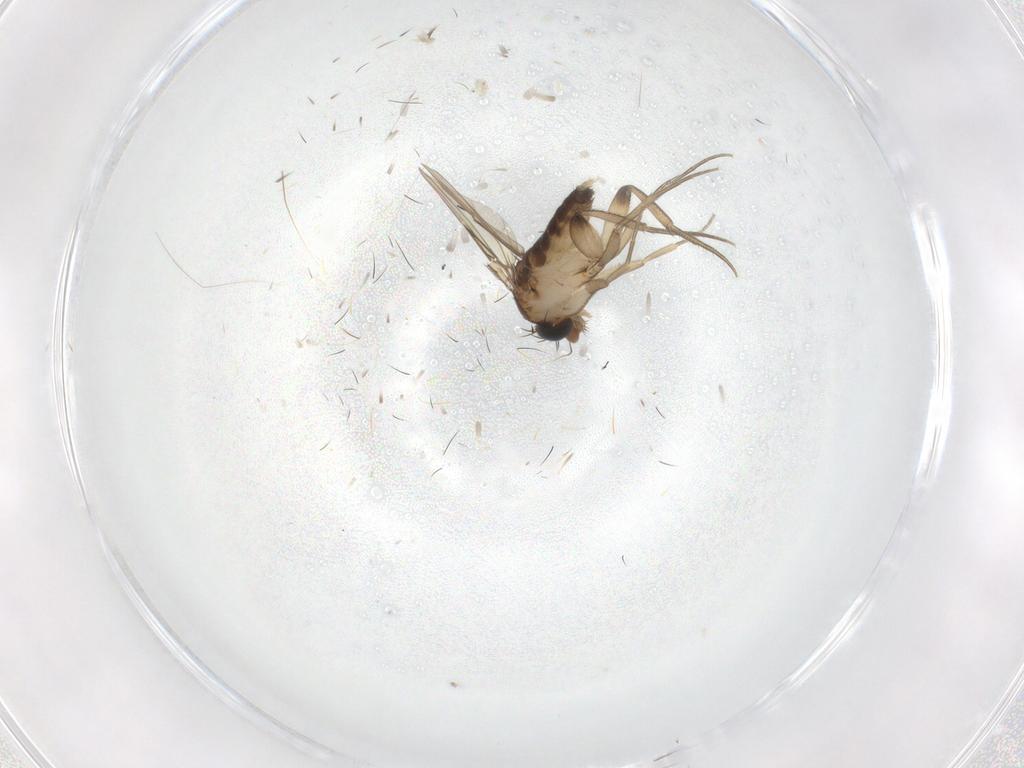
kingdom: Animalia
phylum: Arthropoda
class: Insecta
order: Diptera
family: Phoridae
